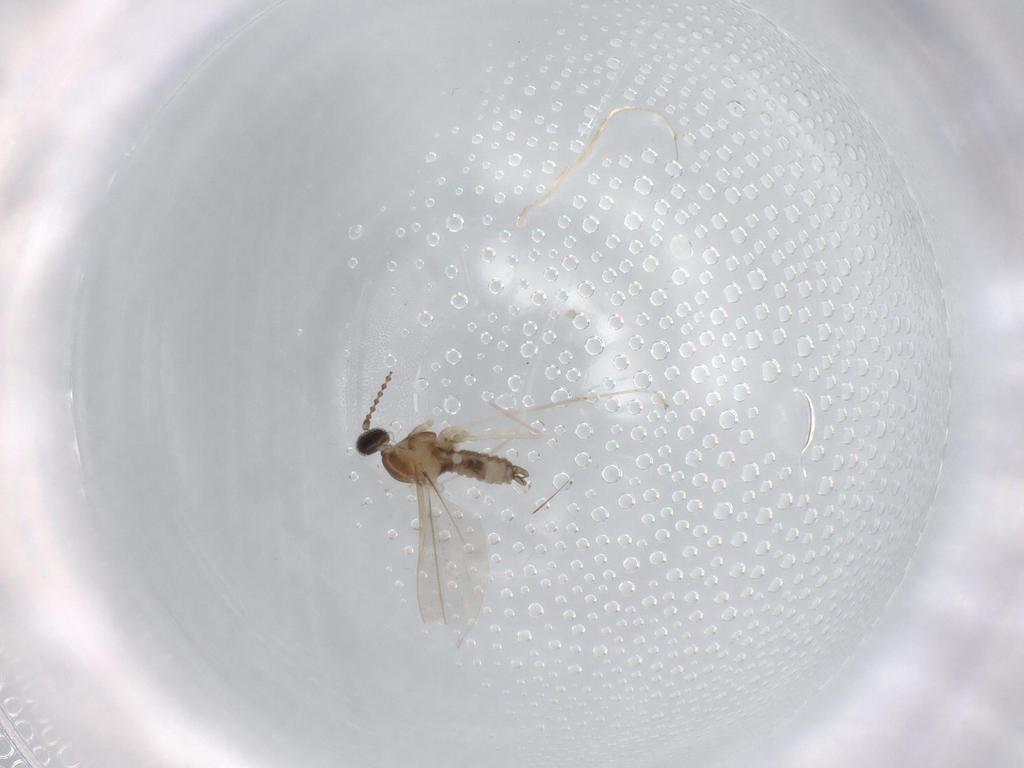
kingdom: Animalia
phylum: Arthropoda
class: Insecta
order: Diptera
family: Cecidomyiidae
